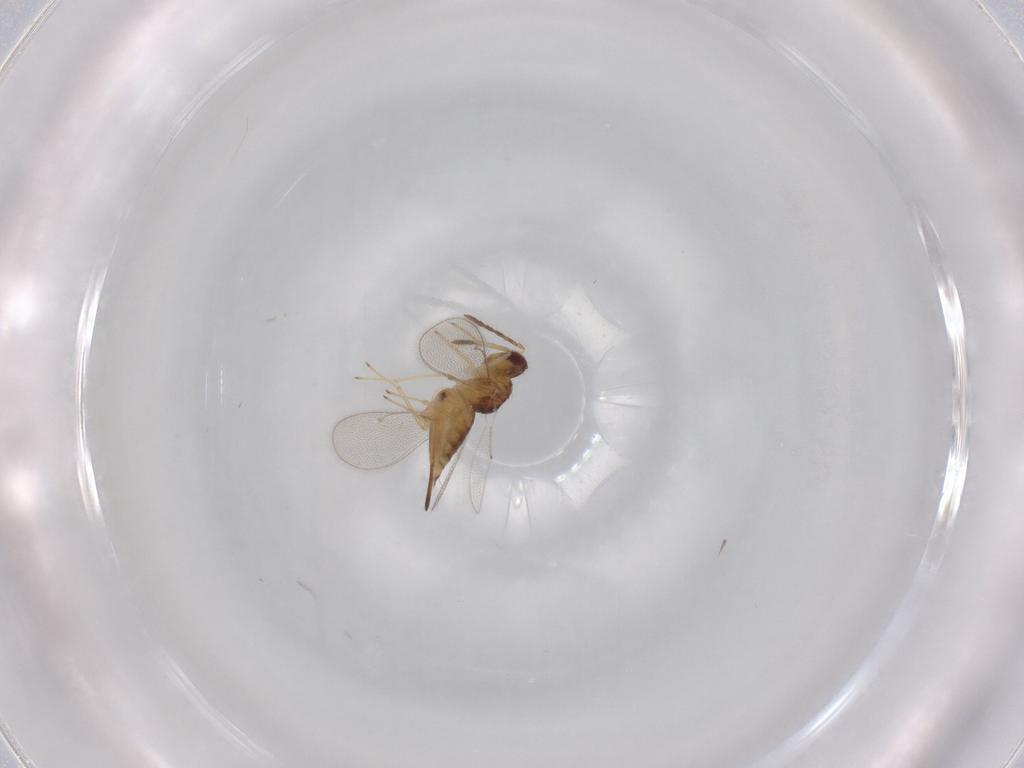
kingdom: Animalia
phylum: Arthropoda
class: Insecta
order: Hymenoptera
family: Eulophidae
